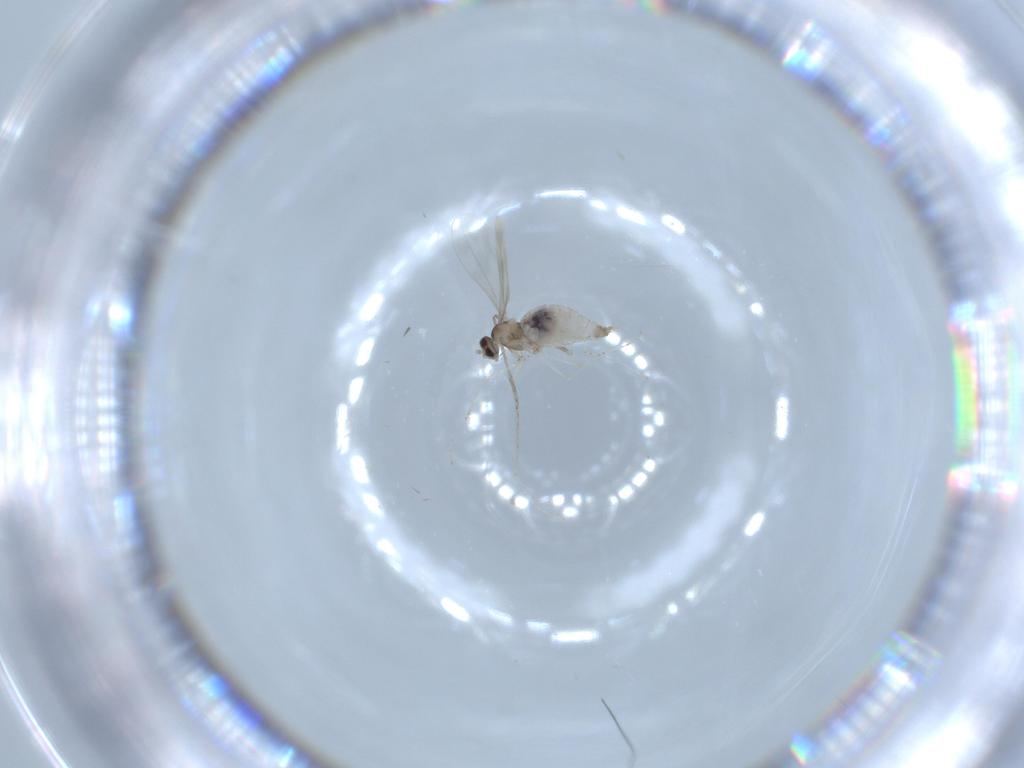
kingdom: Animalia
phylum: Arthropoda
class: Insecta
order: Diptera
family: Cecidomyiidae
